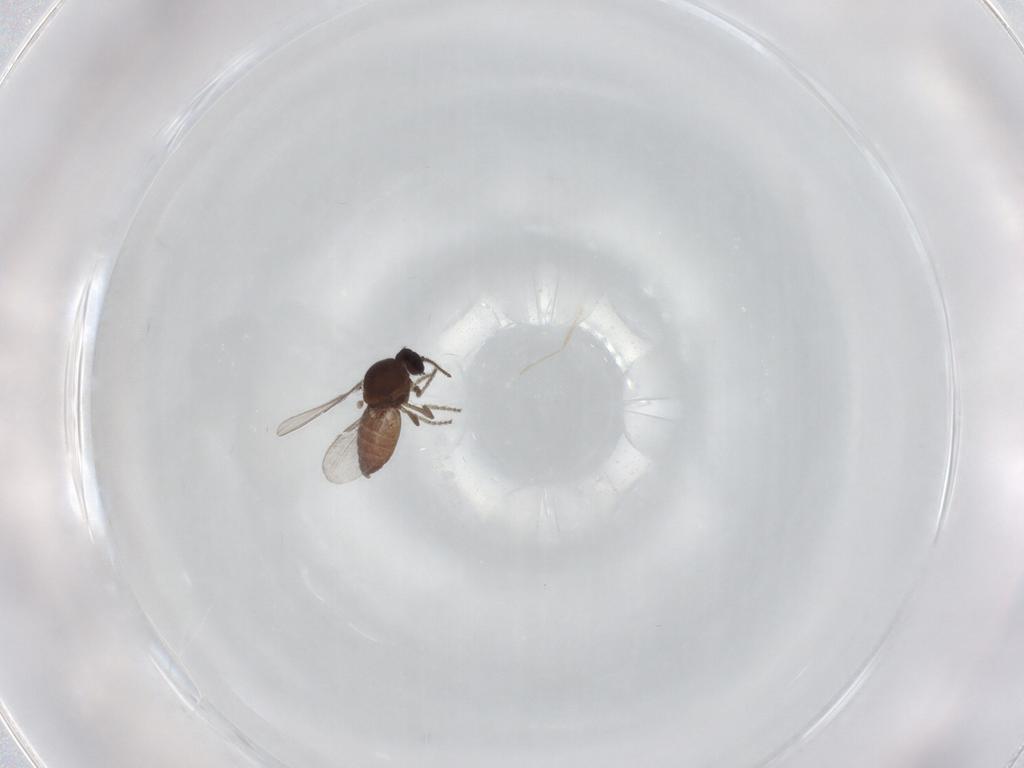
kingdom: Animalia
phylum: Arthropoda
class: Insecta
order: Diptera
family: Ceratopogonidae
